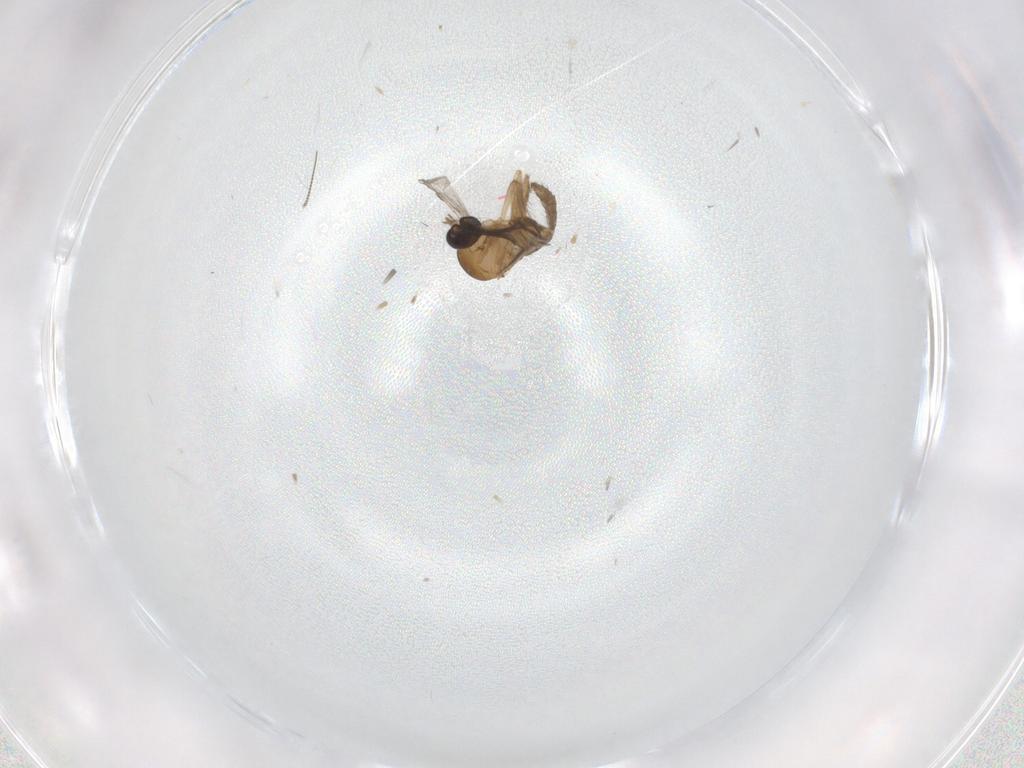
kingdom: Animalia
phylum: Arthropoda
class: Insecta
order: Diptera
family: Ceratopogonidae
